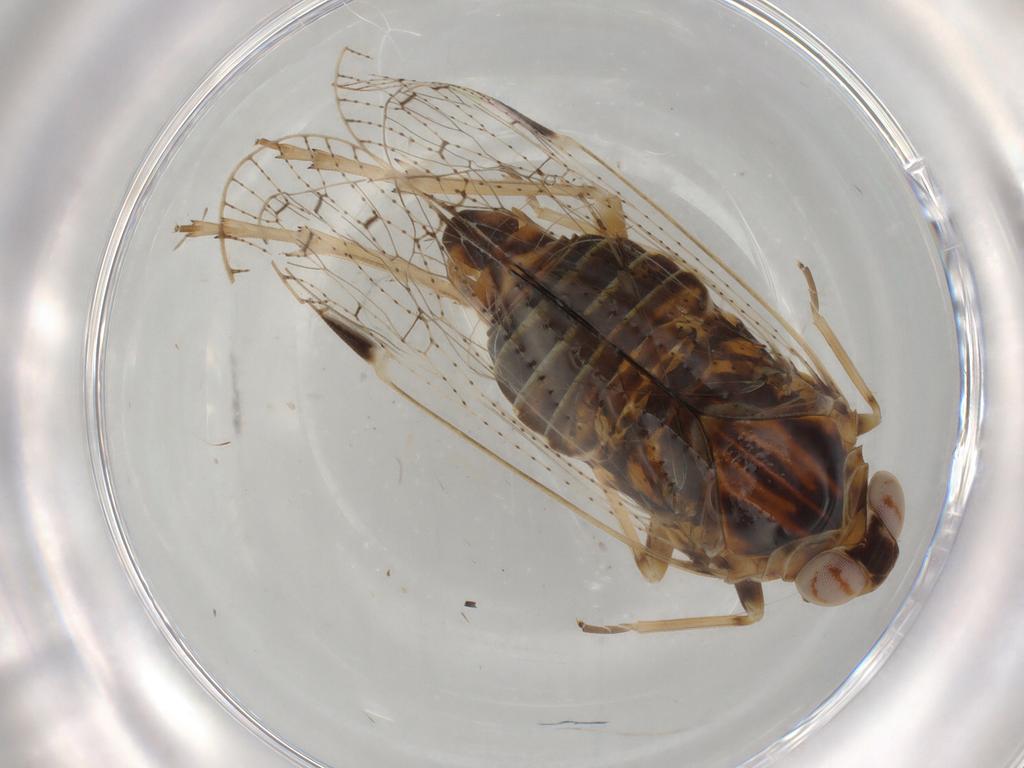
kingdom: Animalia
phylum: Arthropoda
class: Insecta
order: Hemiptera
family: Cixiidae
